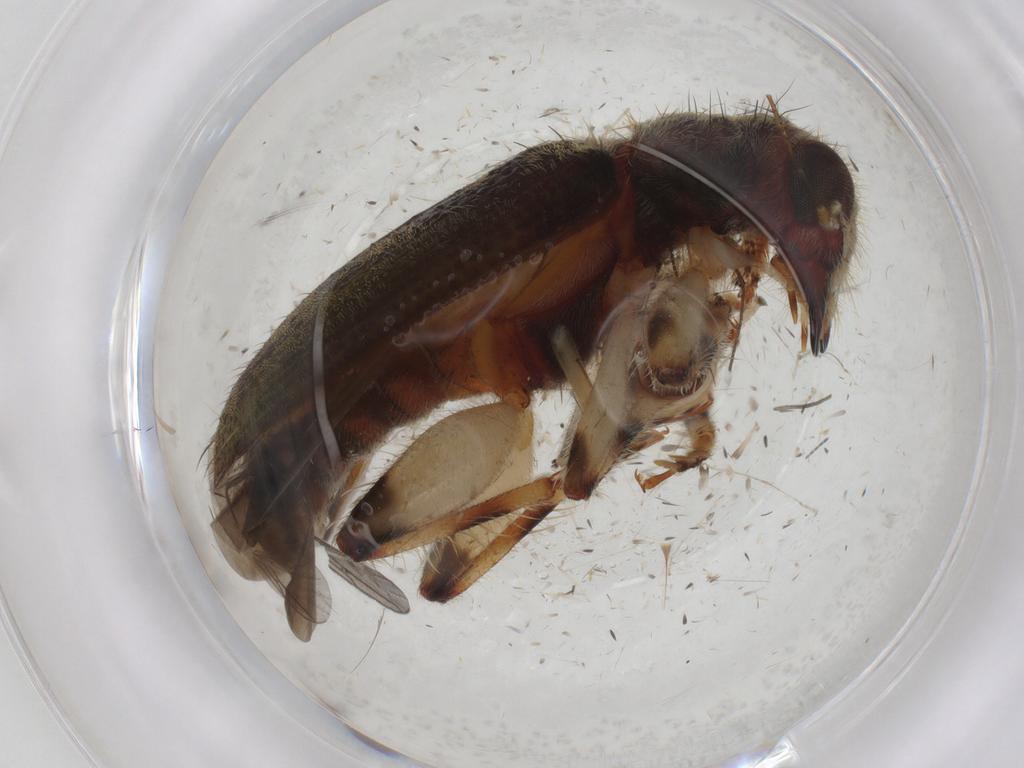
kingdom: Animalia
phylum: Arthropoda
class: Insecta
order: Coleoptera
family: Cleridae
